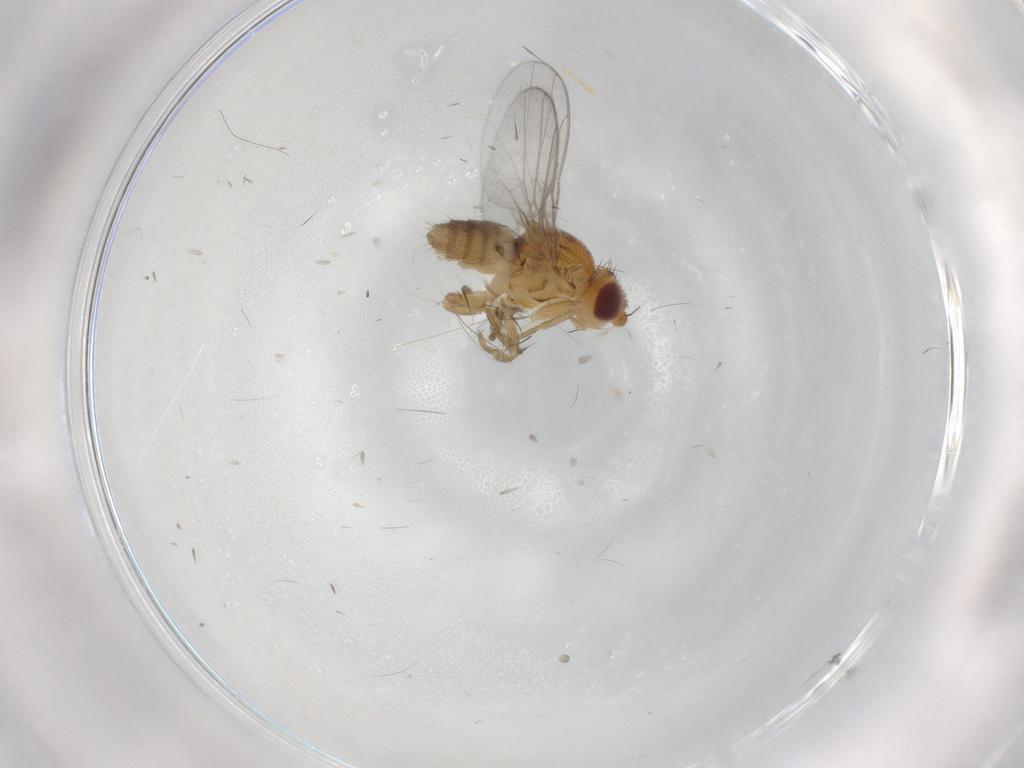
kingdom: Animalia
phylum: Arthropoda
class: Insecta
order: Diptera
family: Chloropidae
